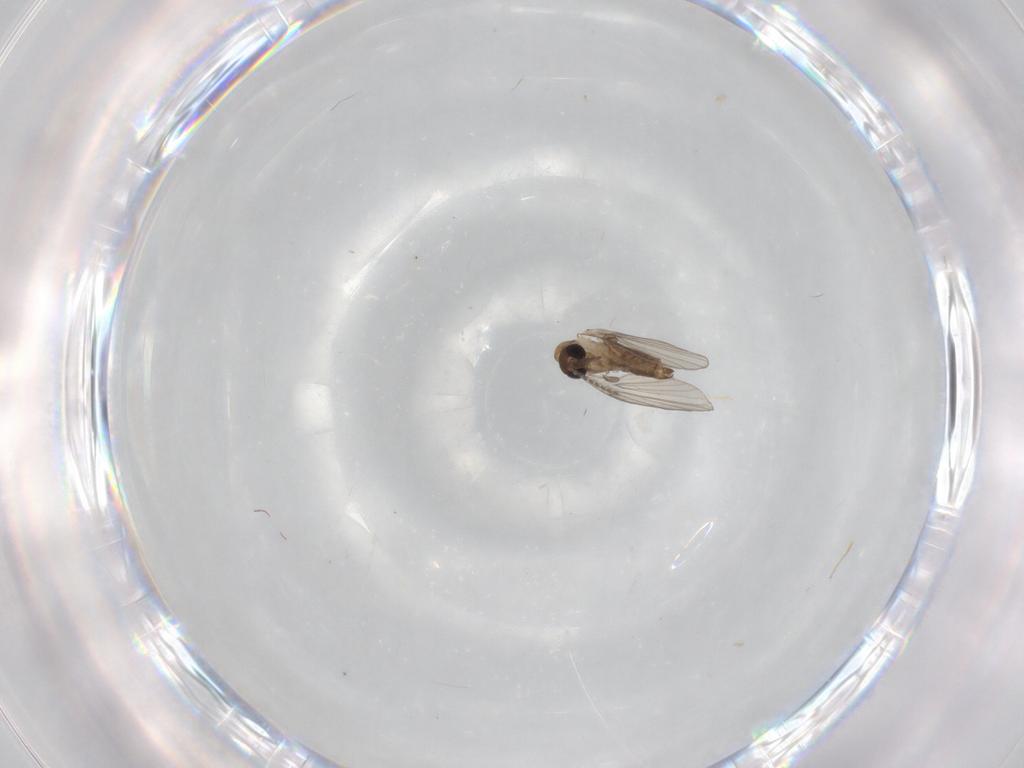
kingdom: Animalia
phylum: Arthropoda
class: Insecta
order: Diptera
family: Psychodidae
